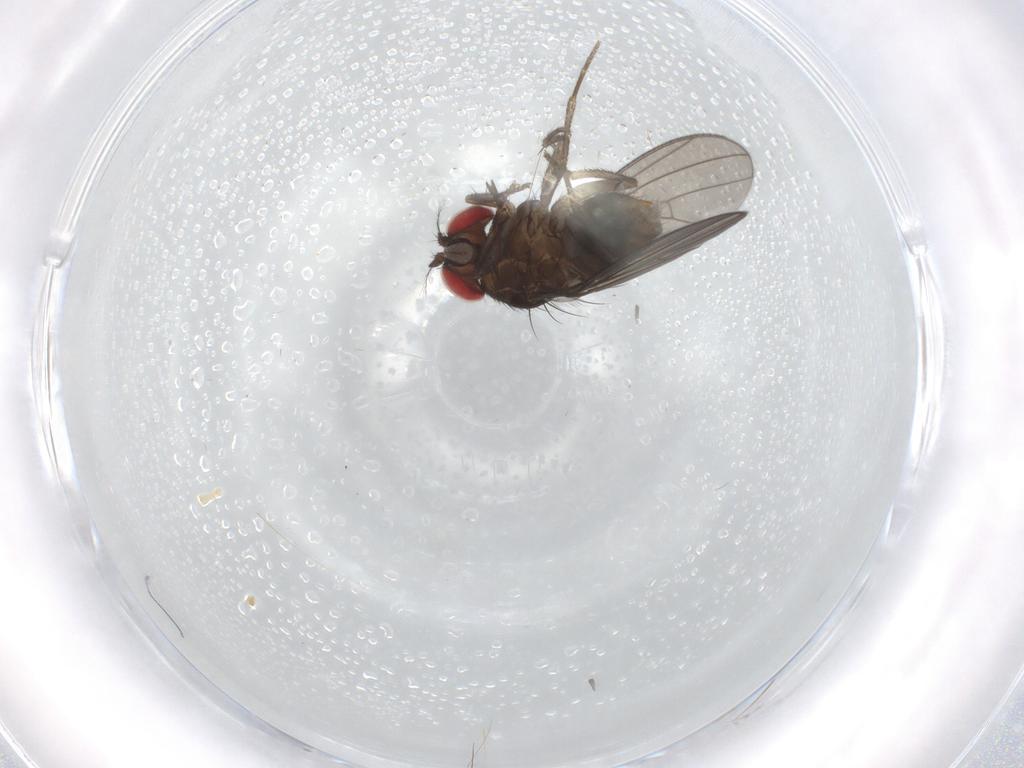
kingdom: Animalia
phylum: Arthropoda
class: Insecta
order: Diptera
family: Drosophilidae
